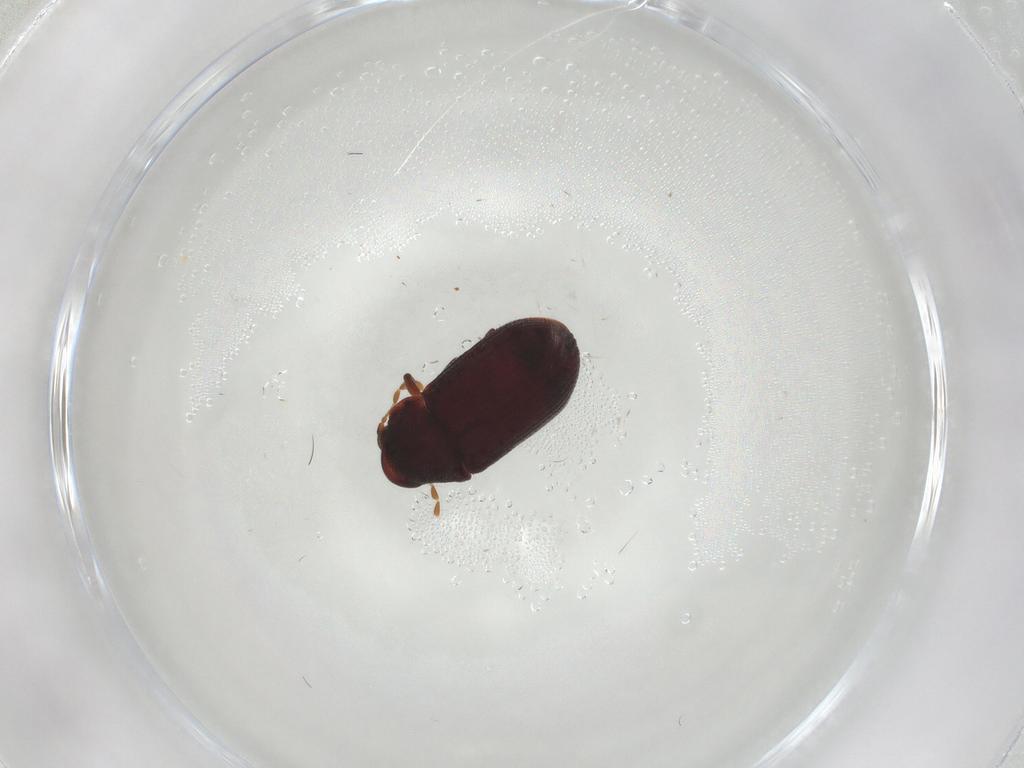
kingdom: Animalia
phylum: Arthropoda
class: Insecta
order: Coleoptera
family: Ptinidae
